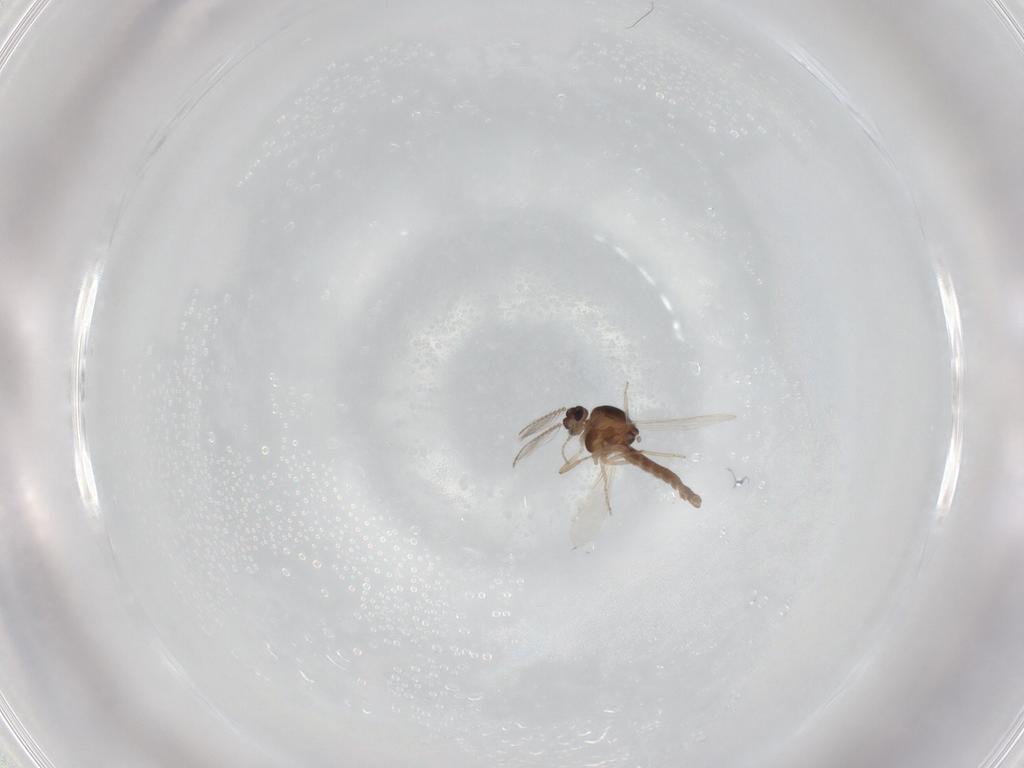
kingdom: Animalia
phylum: Arthropoda
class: Insecta
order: Diptera
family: Ceratopogonidae
